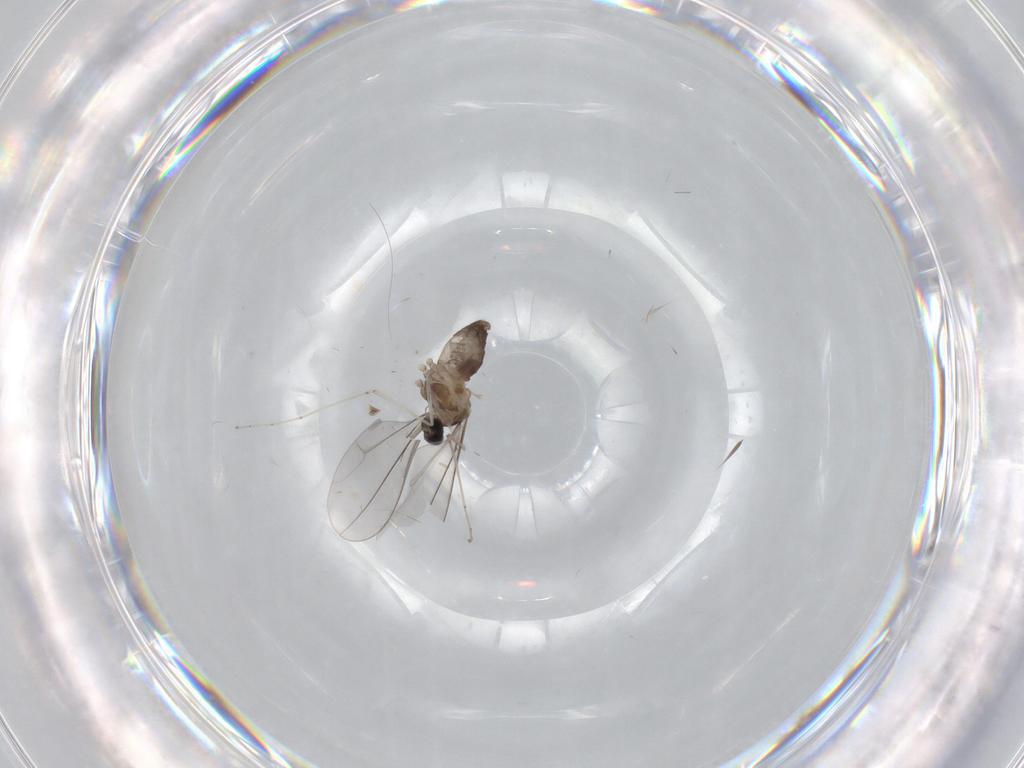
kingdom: Animalia
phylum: Arthropoda
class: Insecta
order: Diptera
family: Cecidomyiidae
